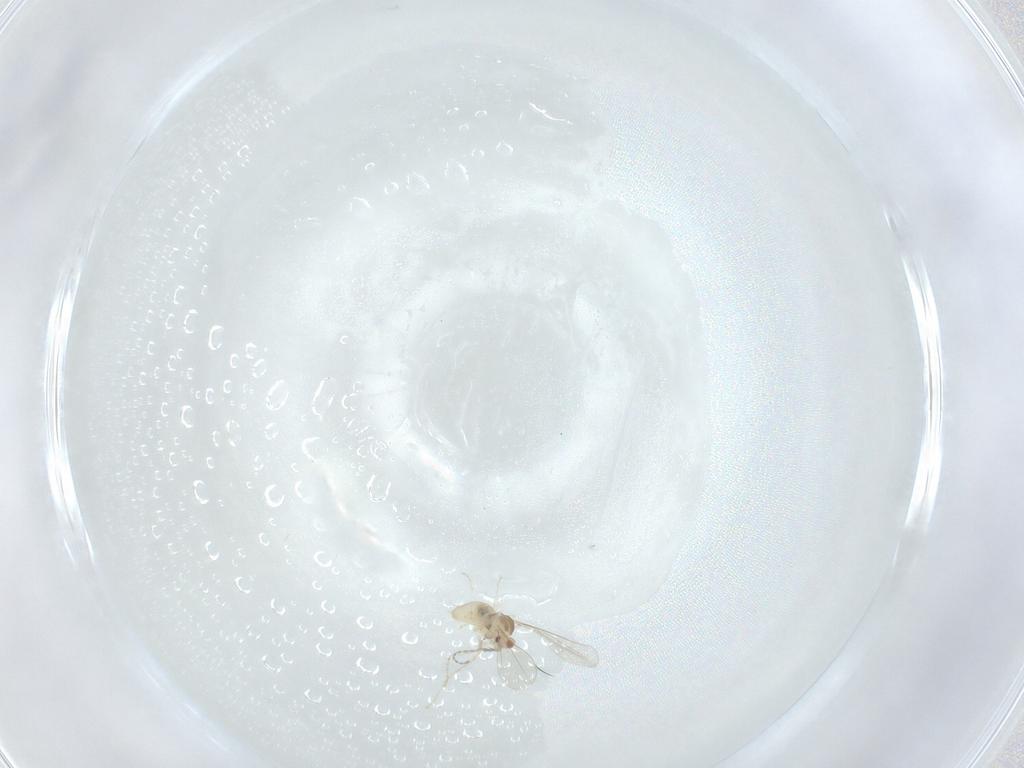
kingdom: Animalia
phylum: Arthropoda
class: Insecta
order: Diptera
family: Cecidomyiidae
